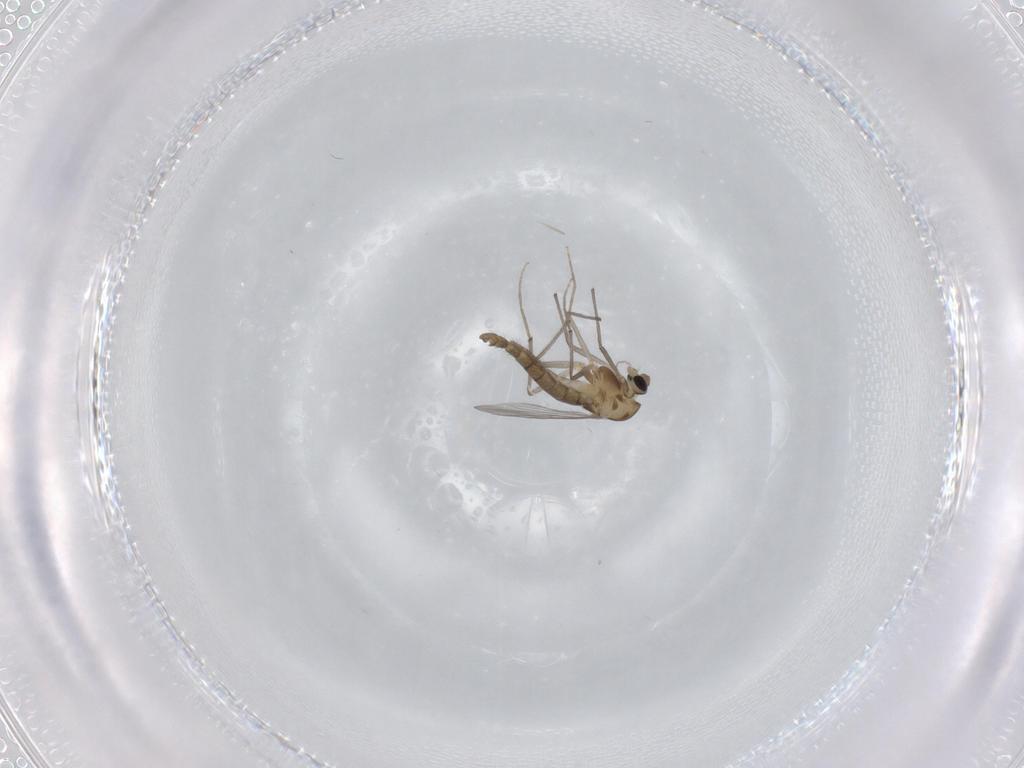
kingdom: Animalia
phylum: Arthropoda
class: Insecta
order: Diptera
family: Chironomidae
